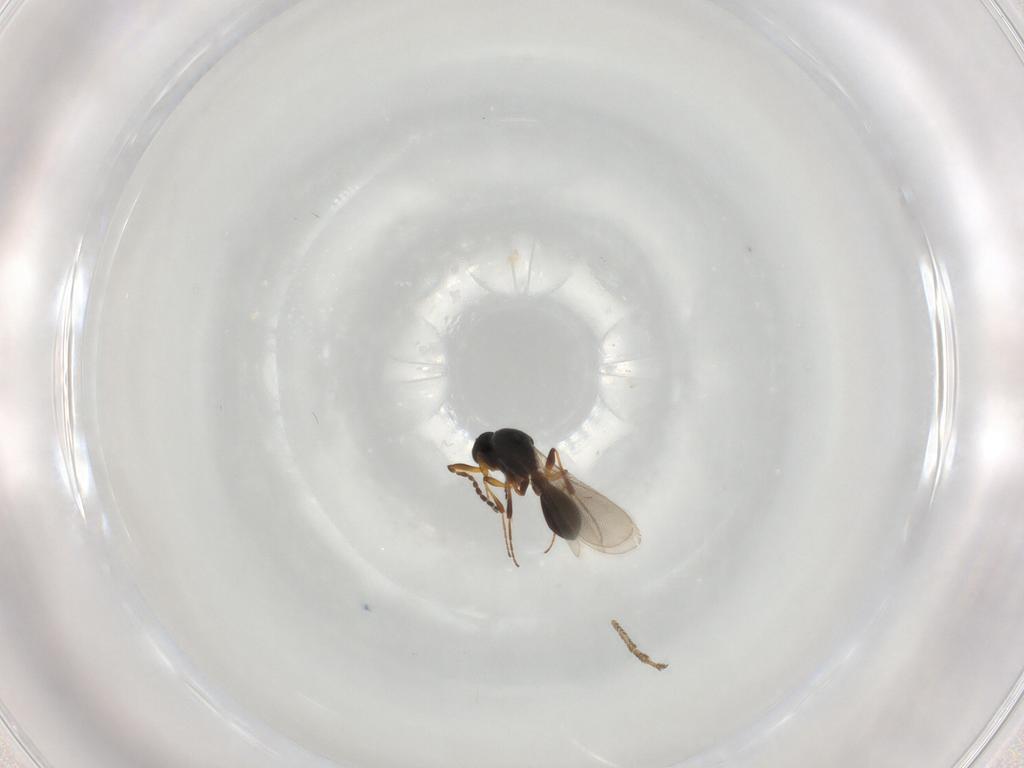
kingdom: Animalia
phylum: Arthropoda
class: Insecta
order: Hymenoptera
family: Platygastridae
